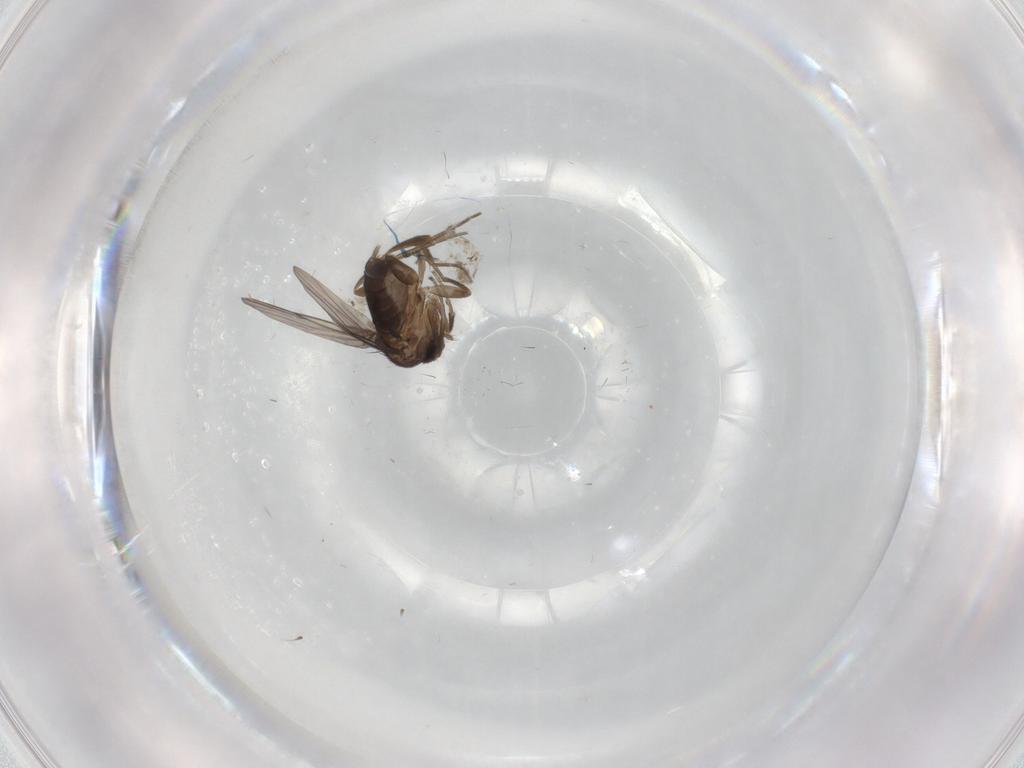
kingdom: Animalia
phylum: Arthropoda
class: Insecta
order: Diptera
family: Phoridae
